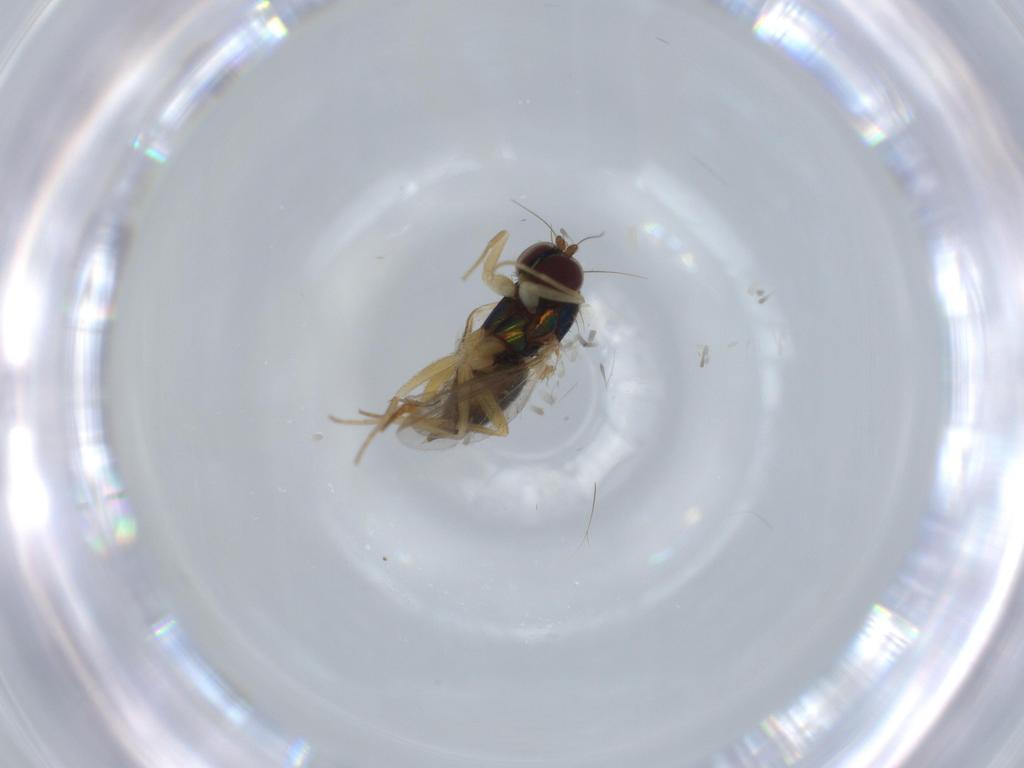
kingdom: Animalia
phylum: Arthropoda
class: Insecta
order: Diptera
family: Dolichopodidae
